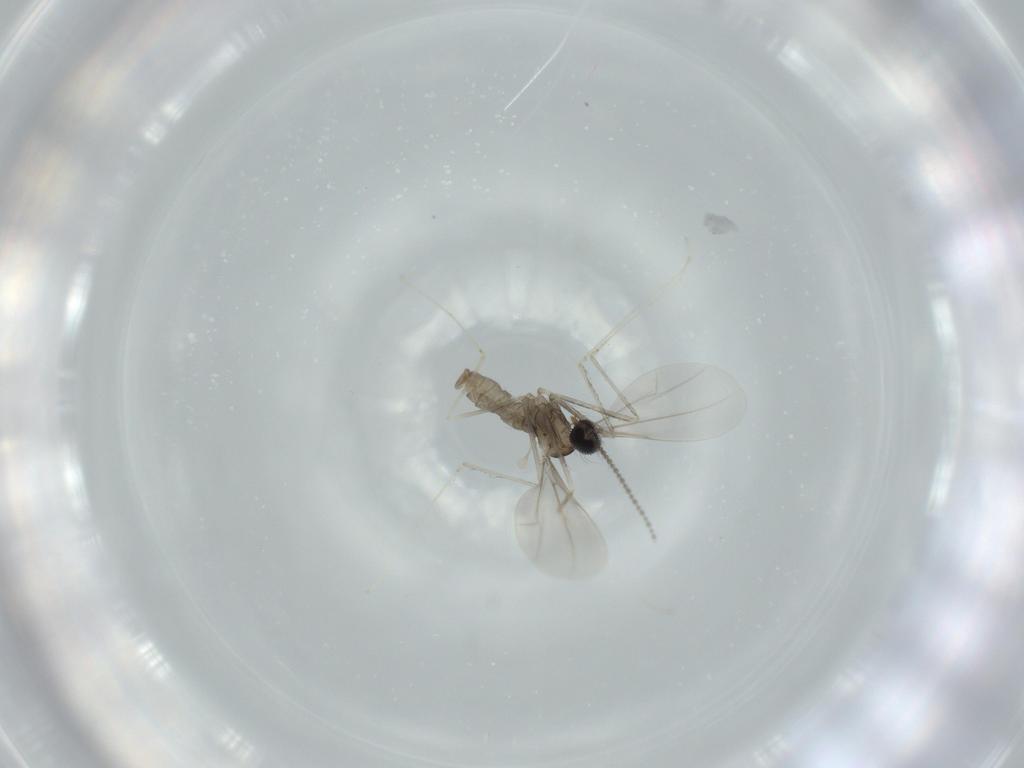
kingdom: Animalia
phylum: Arthropoda
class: Insecta
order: Diptera
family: Cecidomyiidae
